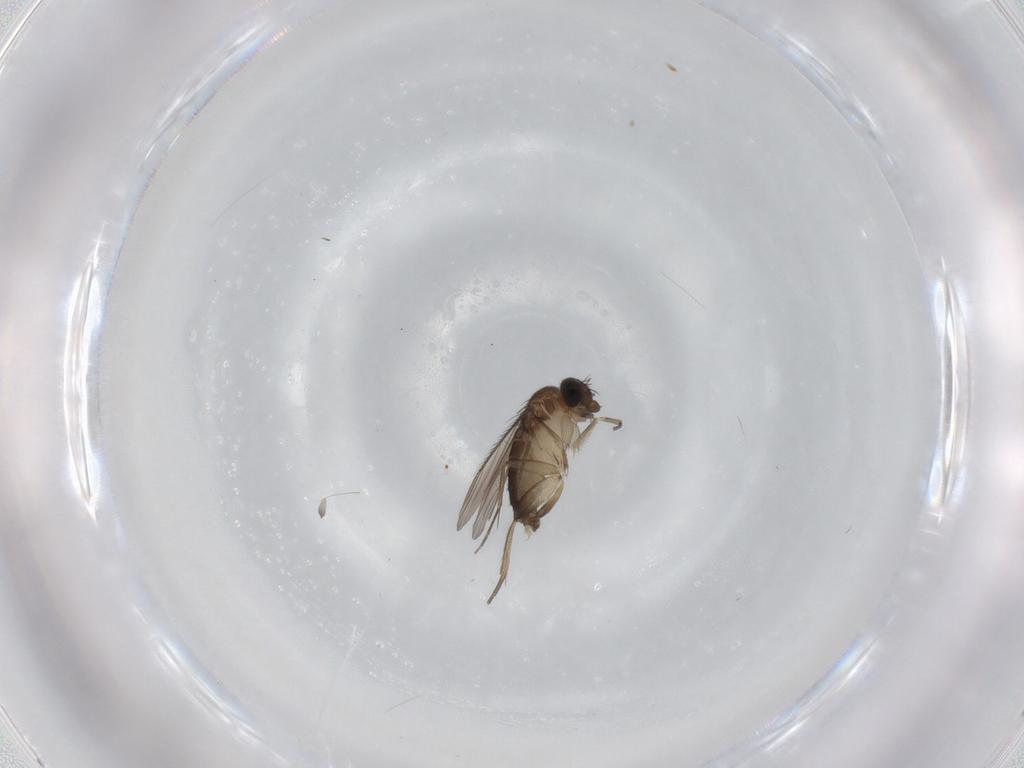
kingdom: Animalia
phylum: Arthropoda
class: Insecta
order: Diptera
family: Phoridae
